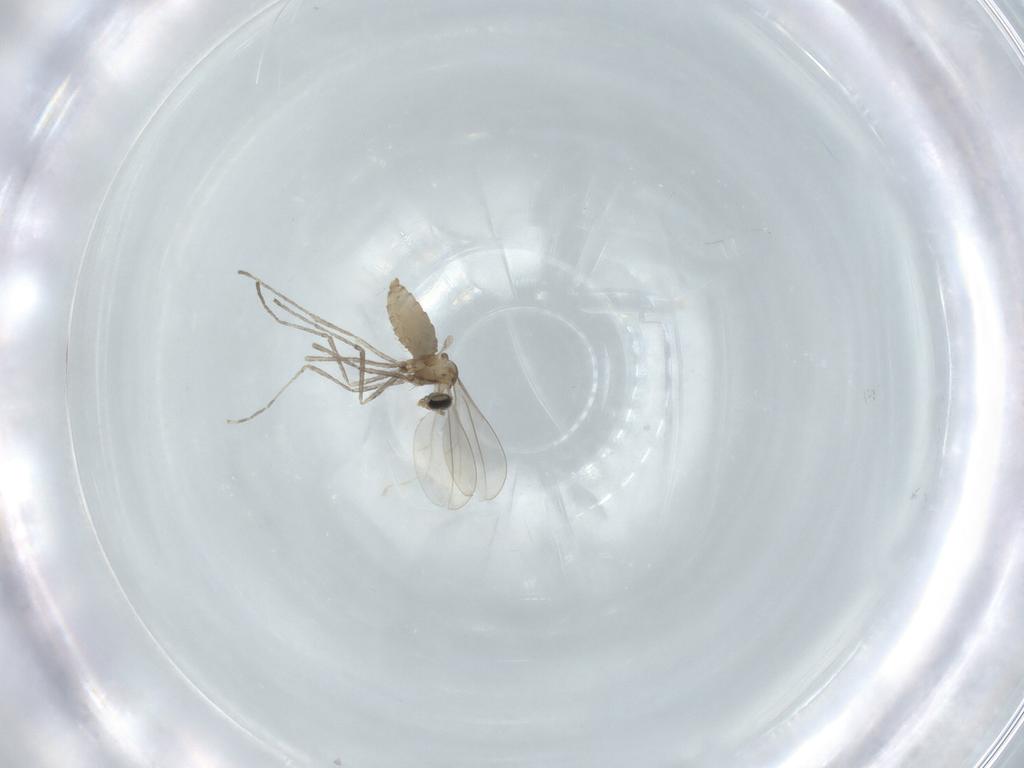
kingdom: Animalia
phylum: Arthropoda
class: Insecta
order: Diptera
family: Cecidomyiidae
